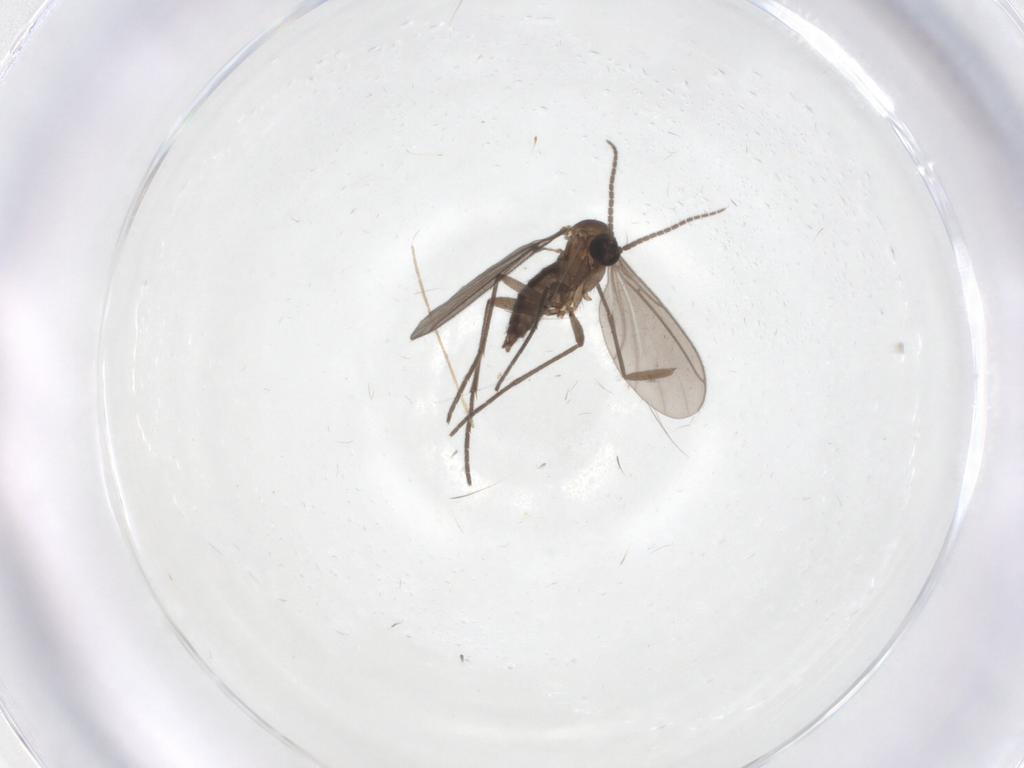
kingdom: Animalia
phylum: Arthropoda
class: Insecta
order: Diptera
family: Sciaridae
